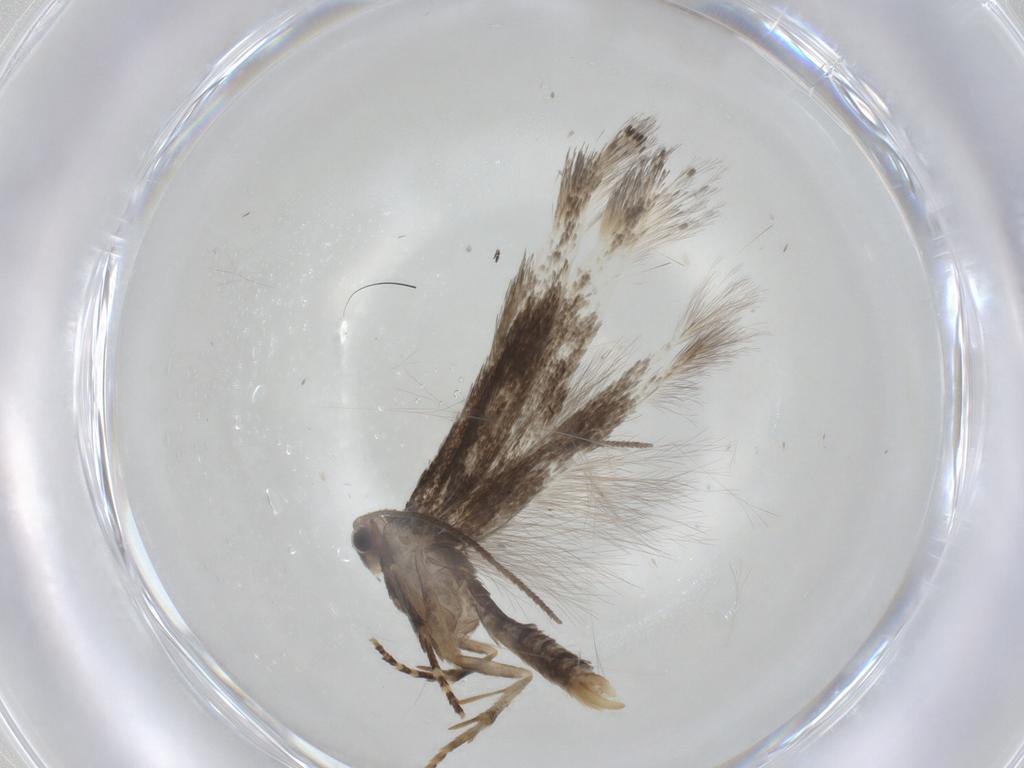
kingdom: Animalia
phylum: Arthropoda
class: Insecta
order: Lepidoptera
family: Elachistidae
